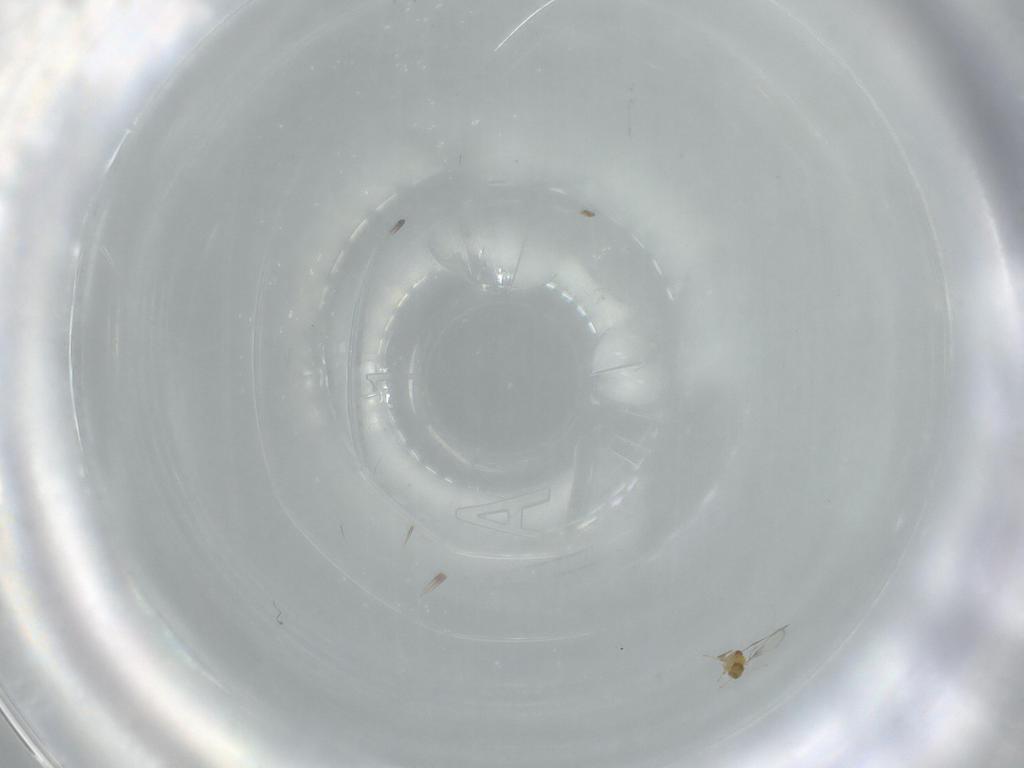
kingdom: Animalia
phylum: Arthropoda
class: Insecta
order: Hymenoptera
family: Trichogrammatidae
